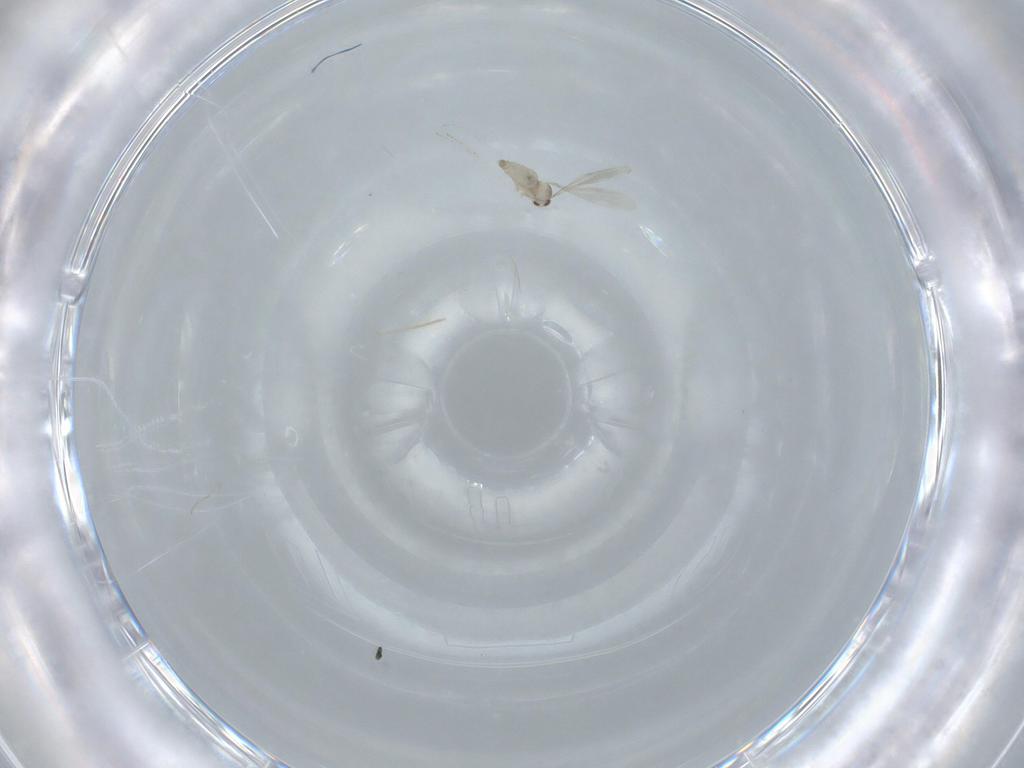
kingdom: Animalia
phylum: Arthropoda
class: Insecta
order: Diptera
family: Cecidomyiidae
